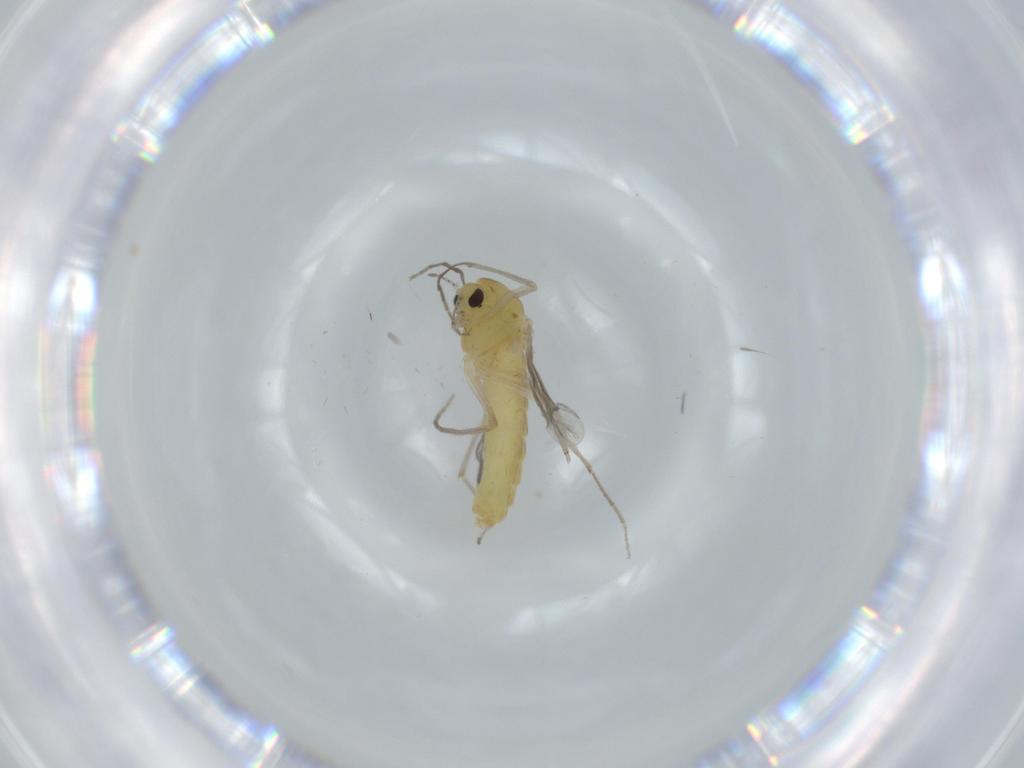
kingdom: Animalia
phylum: Arthropoda
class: Insecta
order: Diptera
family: Chironomidae
